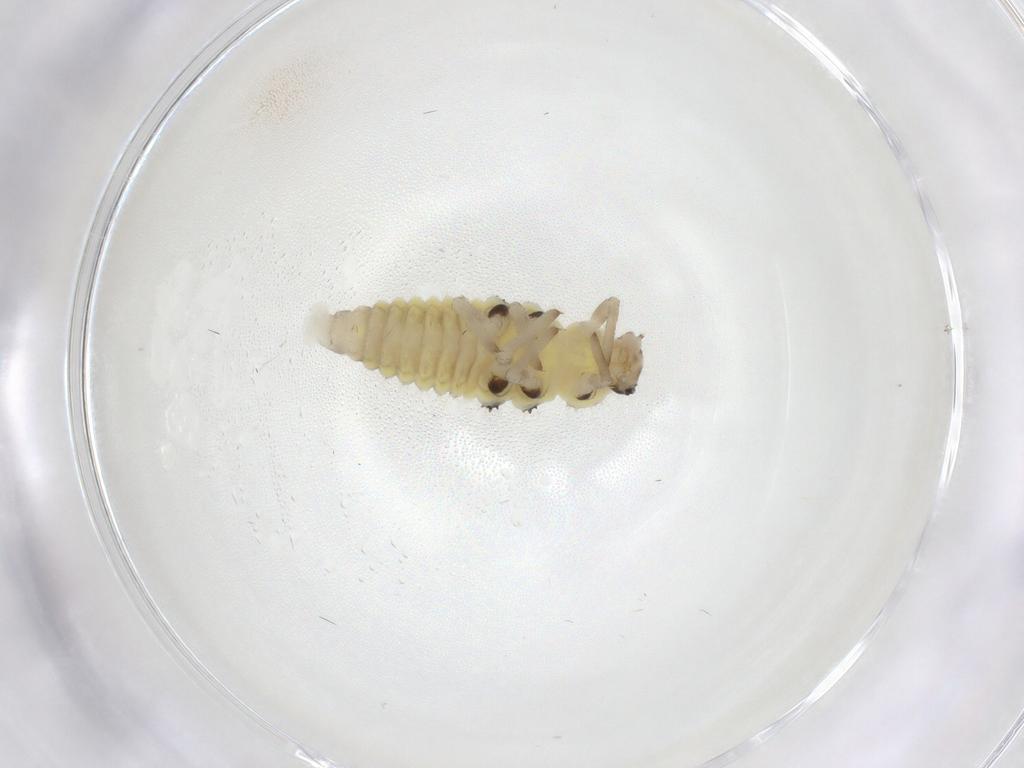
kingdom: Animalia
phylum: Arthropoda
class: Insecta
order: Coleoptera
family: Coccinellidae
